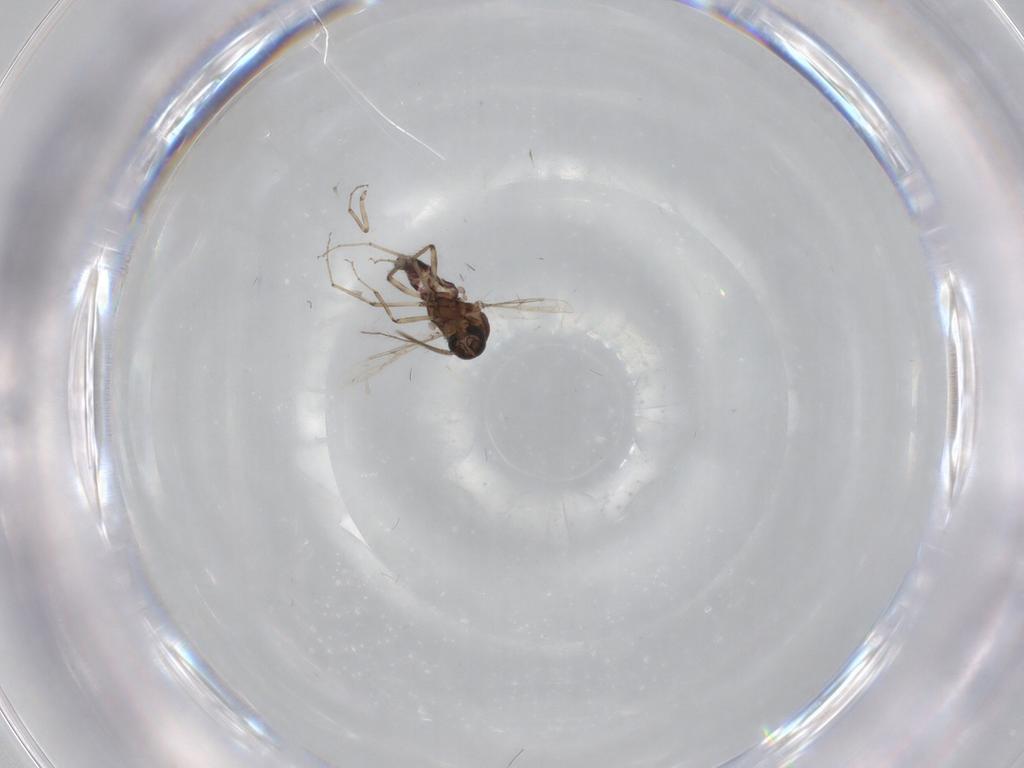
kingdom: Animalia
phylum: Arthropoda
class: Insecta
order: Diptera
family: Ceratopogonidae
